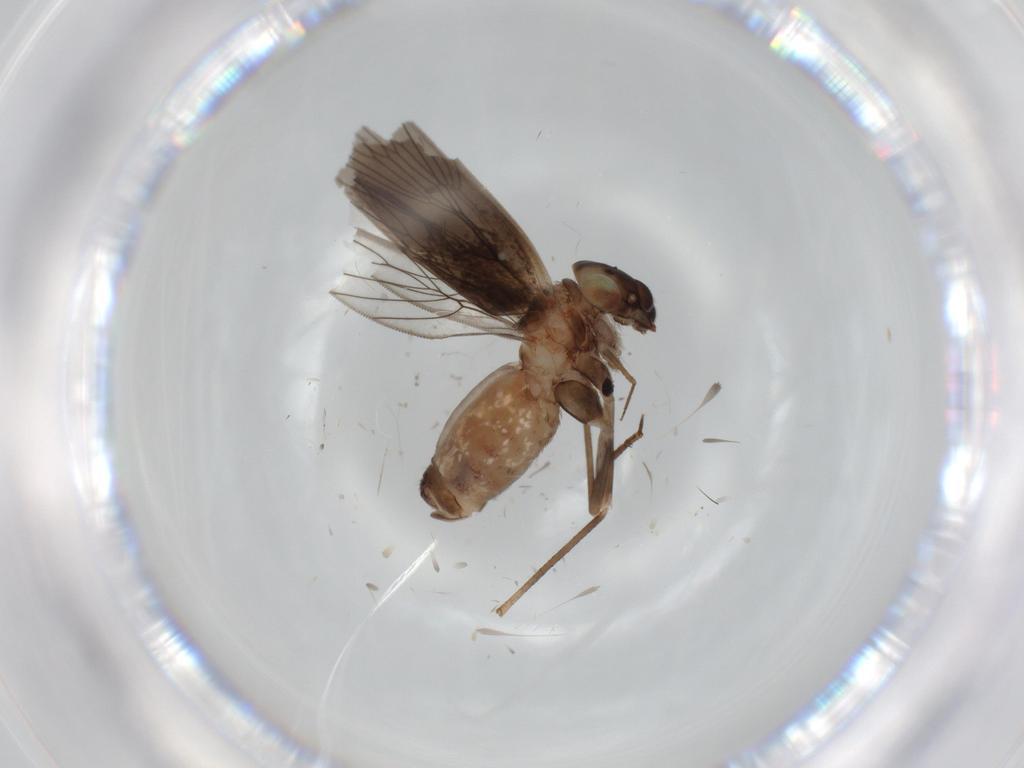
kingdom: Animalia
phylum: Arthropoda
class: Insecta
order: Psocodea
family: Lepidopsocidae
